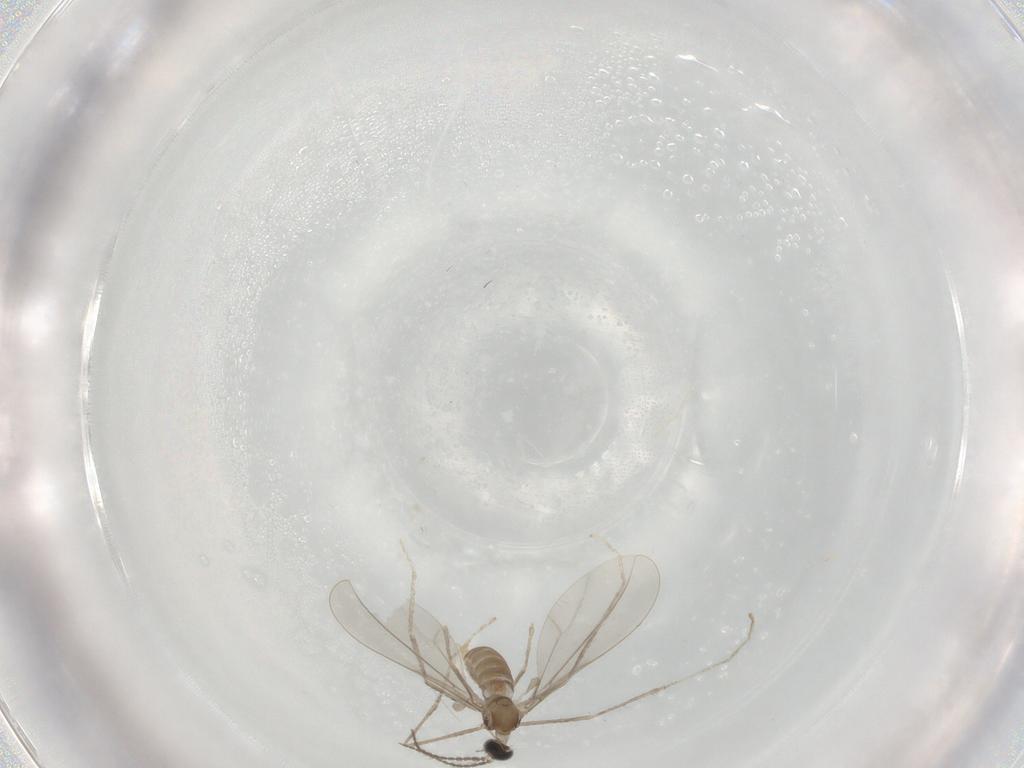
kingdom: Animalia
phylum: Arthropoda
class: Insecta
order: Diptera
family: Cecidomyiidae
